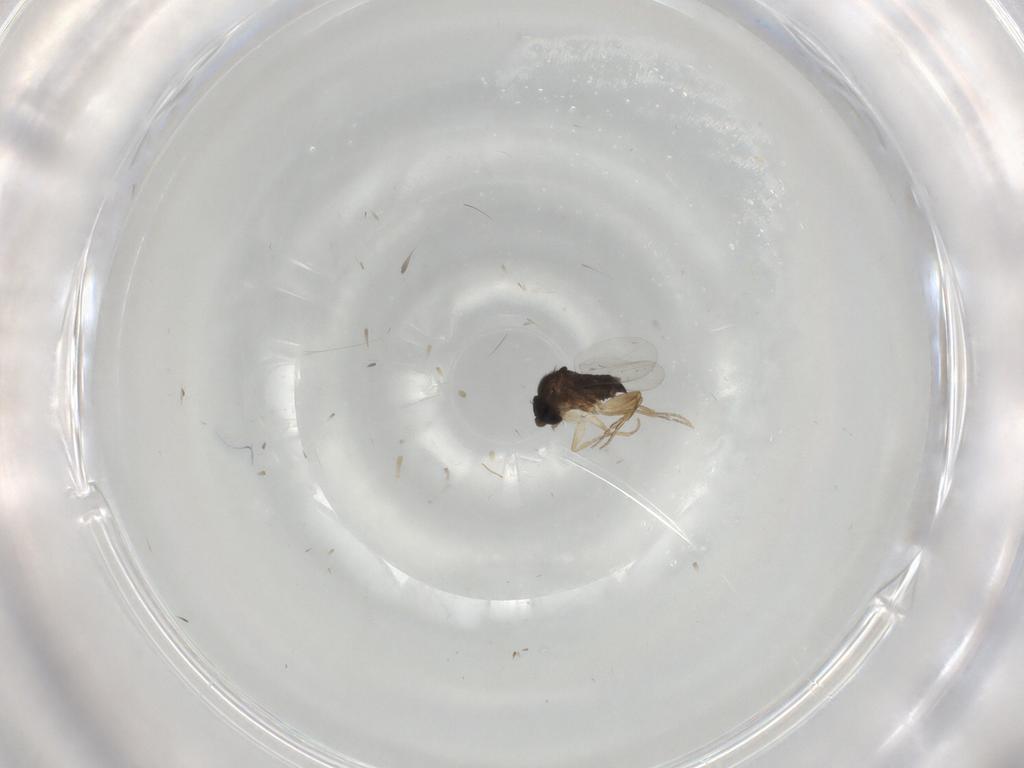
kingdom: Animalia
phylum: Arthropoda
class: Insecta
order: Diptera
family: Phoridae
